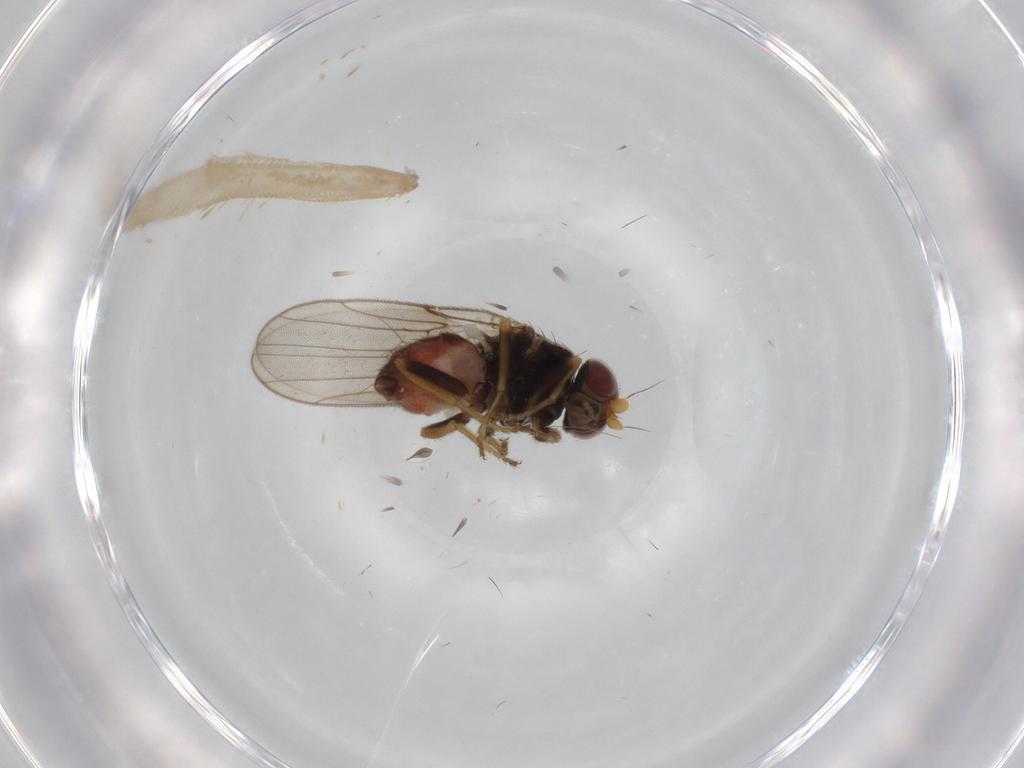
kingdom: Animalia
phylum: Arthropoda
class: Insecta
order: Diptera
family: Chloropidae
